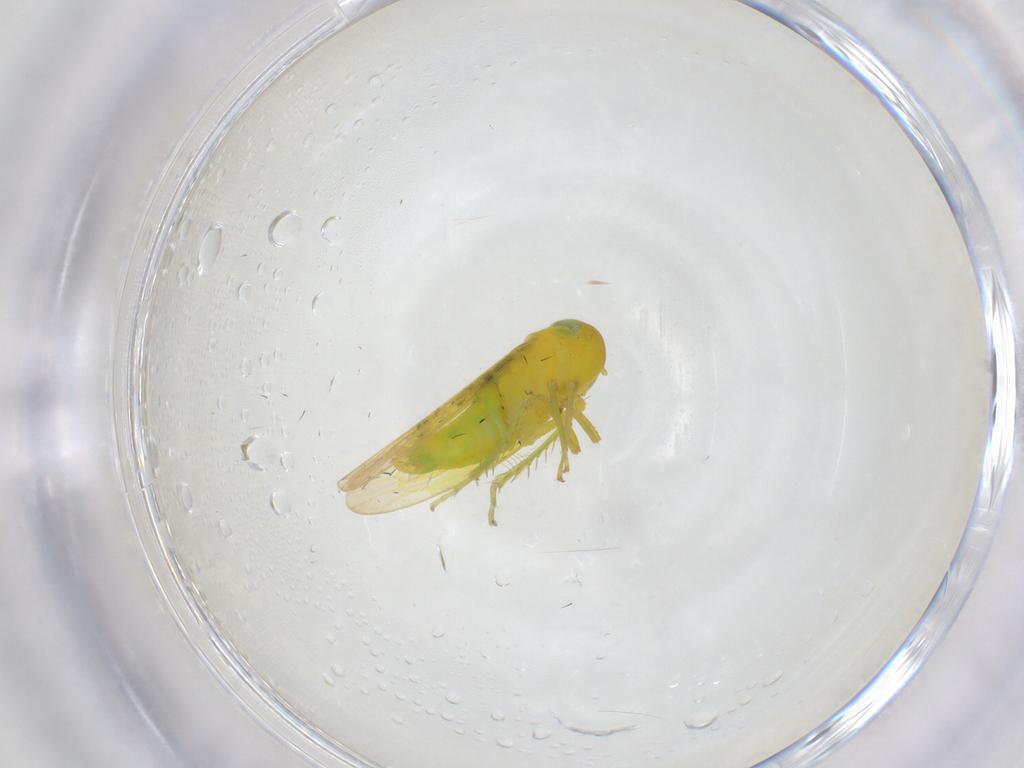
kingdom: Animalia
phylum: Arthropoda
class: Insecta
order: Hemiptera
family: Cicadellidae
